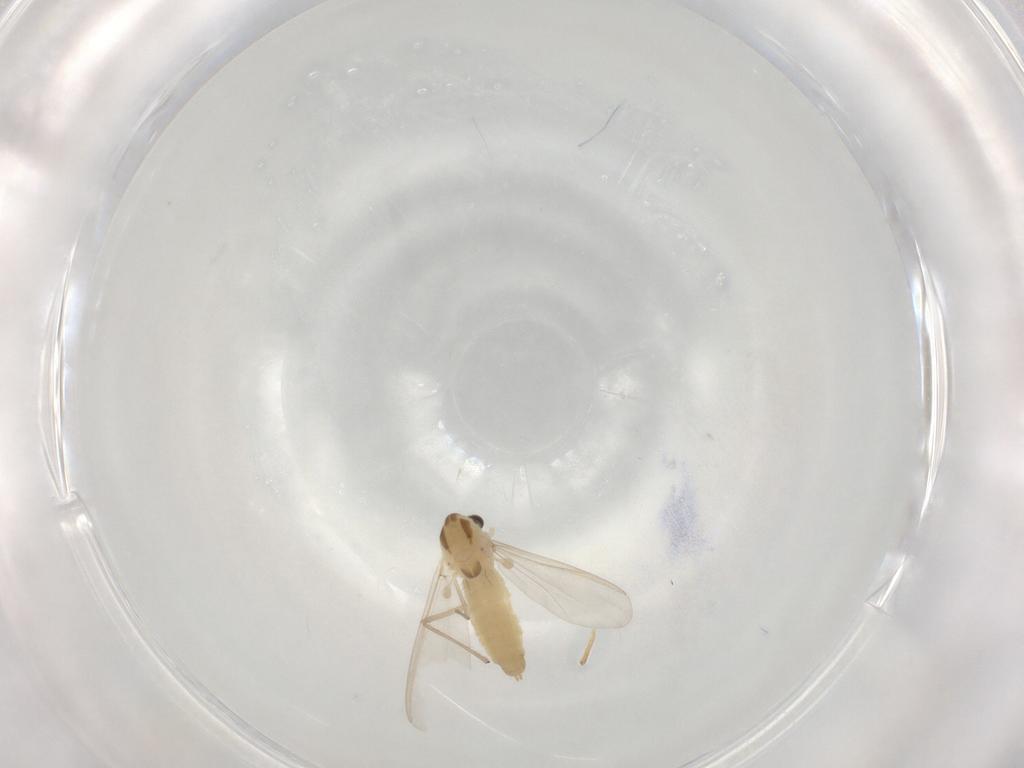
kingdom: Animalia
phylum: Arthropoda
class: Insecta
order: Diptera
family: Chironomidae
